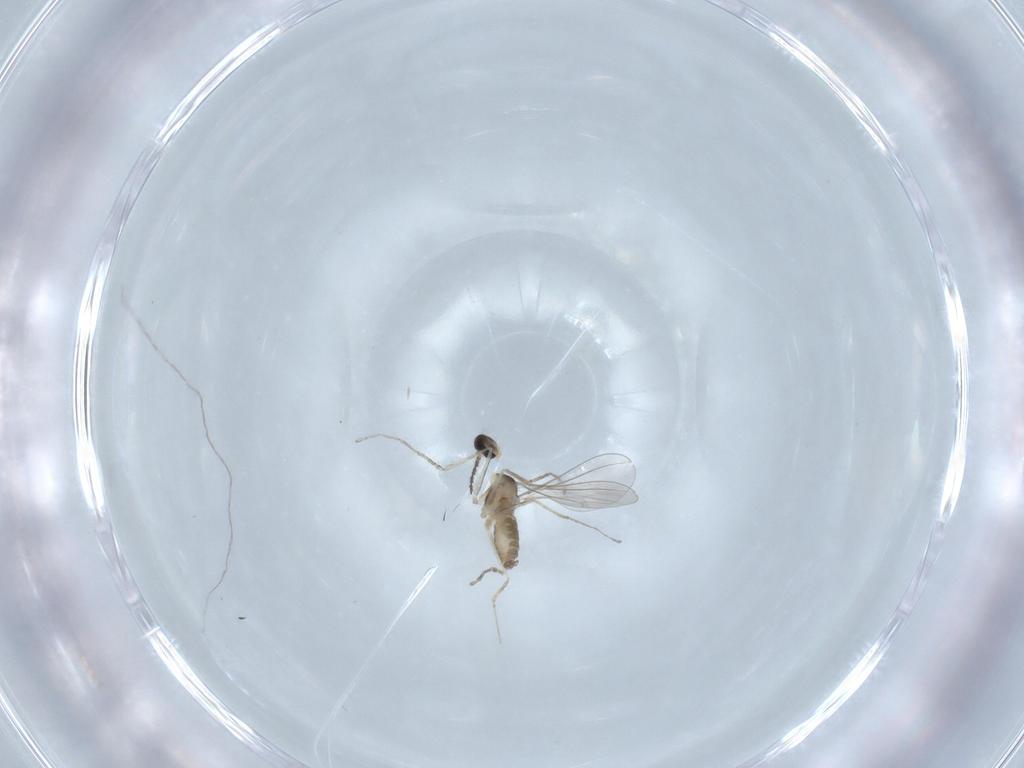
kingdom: Animalia
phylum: Arthropoda
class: Insecta
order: Diptera
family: Cecidomyiidae
